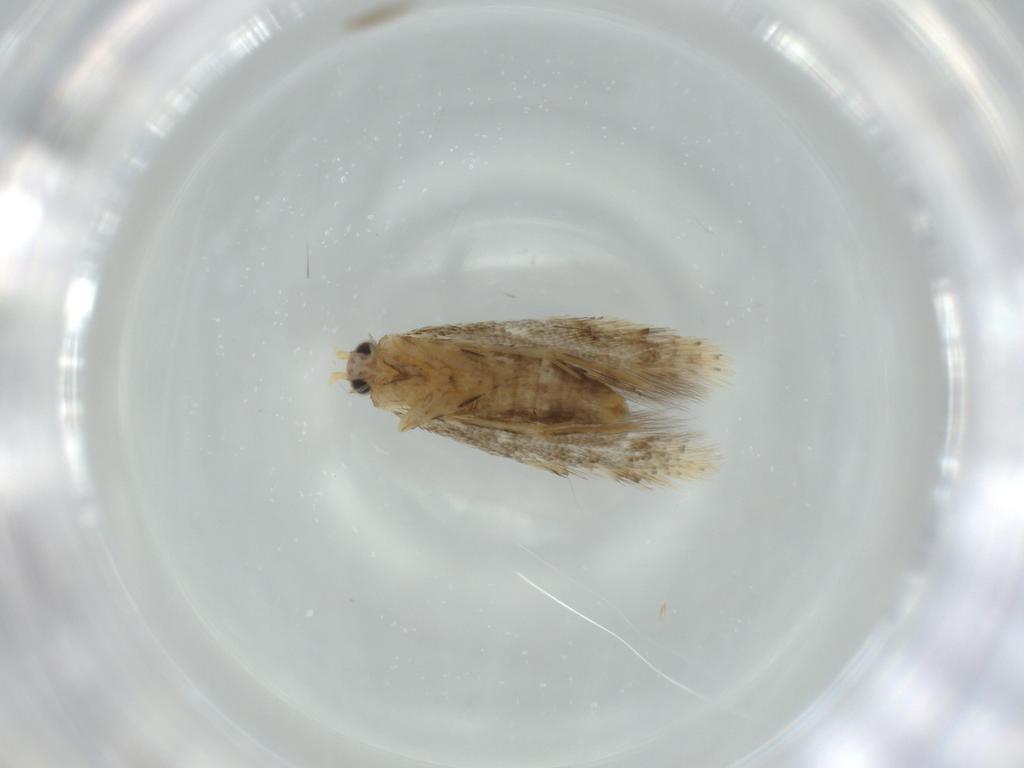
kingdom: Animalia
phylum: Arthropoda
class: Insecta
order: Lepidoptera
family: Tineidae
